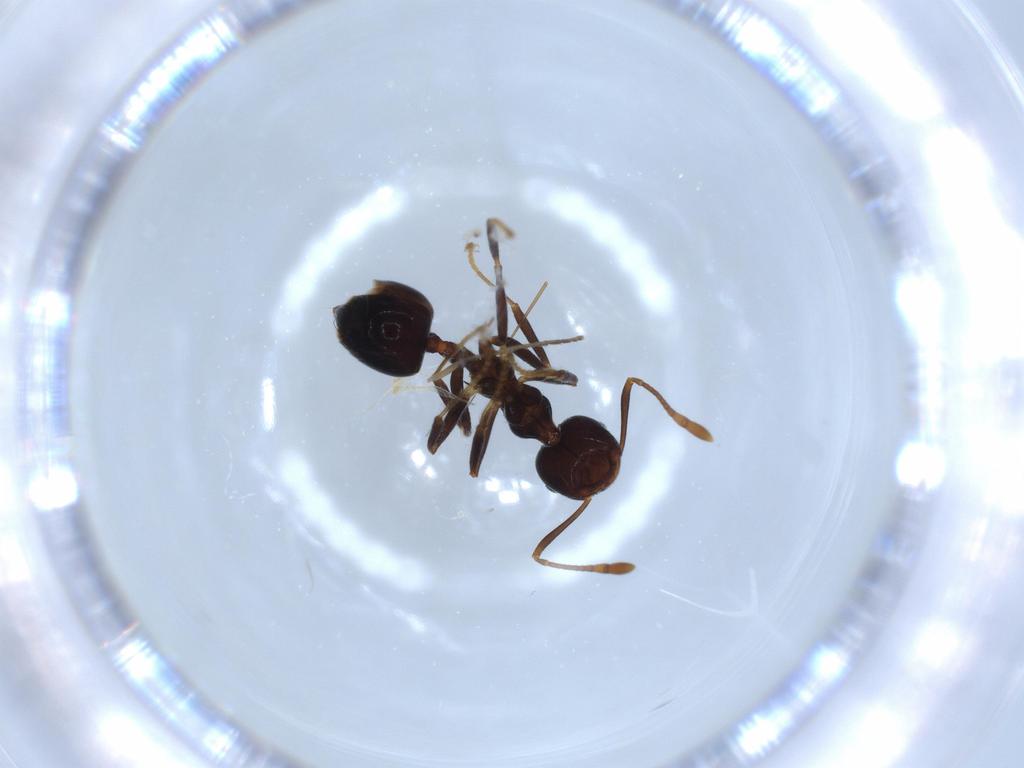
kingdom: Animalia
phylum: Arthropoda
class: Insecta
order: Hymenoptera
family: Formicidae
